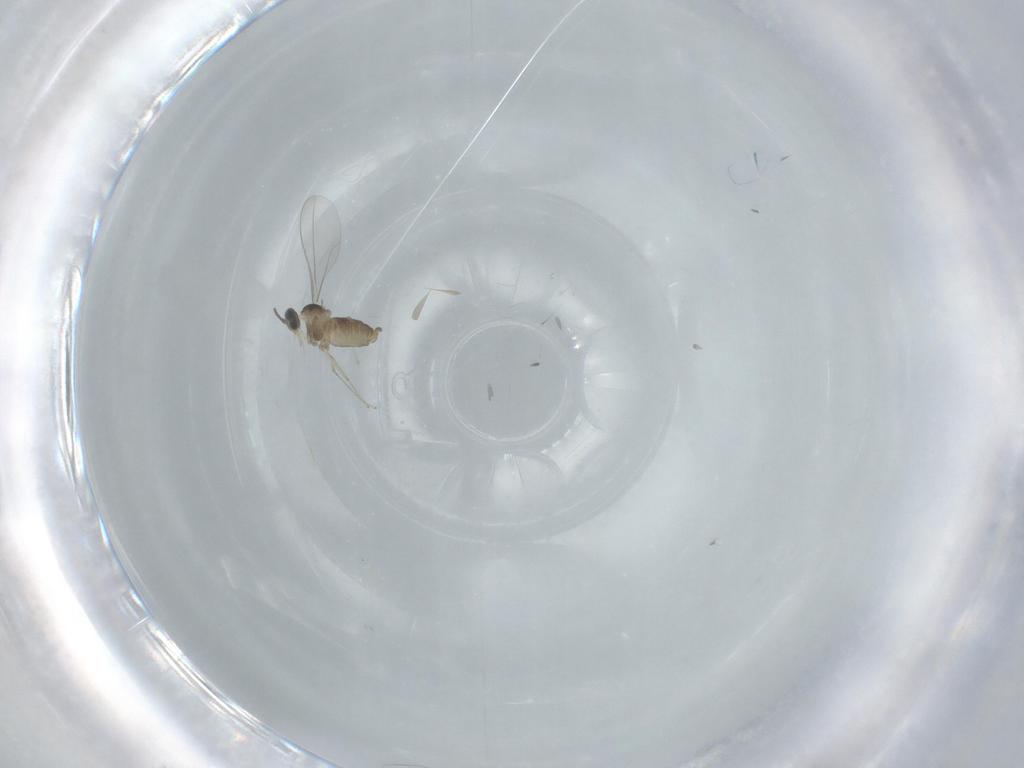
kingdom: Animalia
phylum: Arthropoda
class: Insecta
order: Diptera
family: Cecidomyiidae
